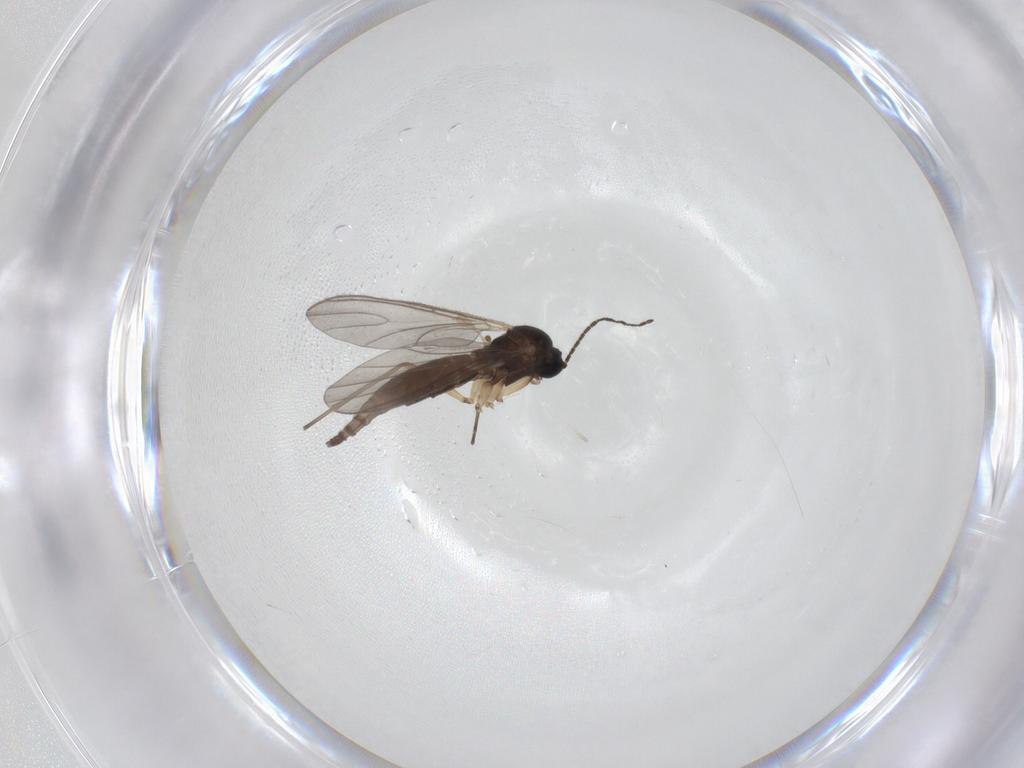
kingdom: Animalia
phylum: Arthropoda
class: Insecta
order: Diptera
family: Sciaridae
